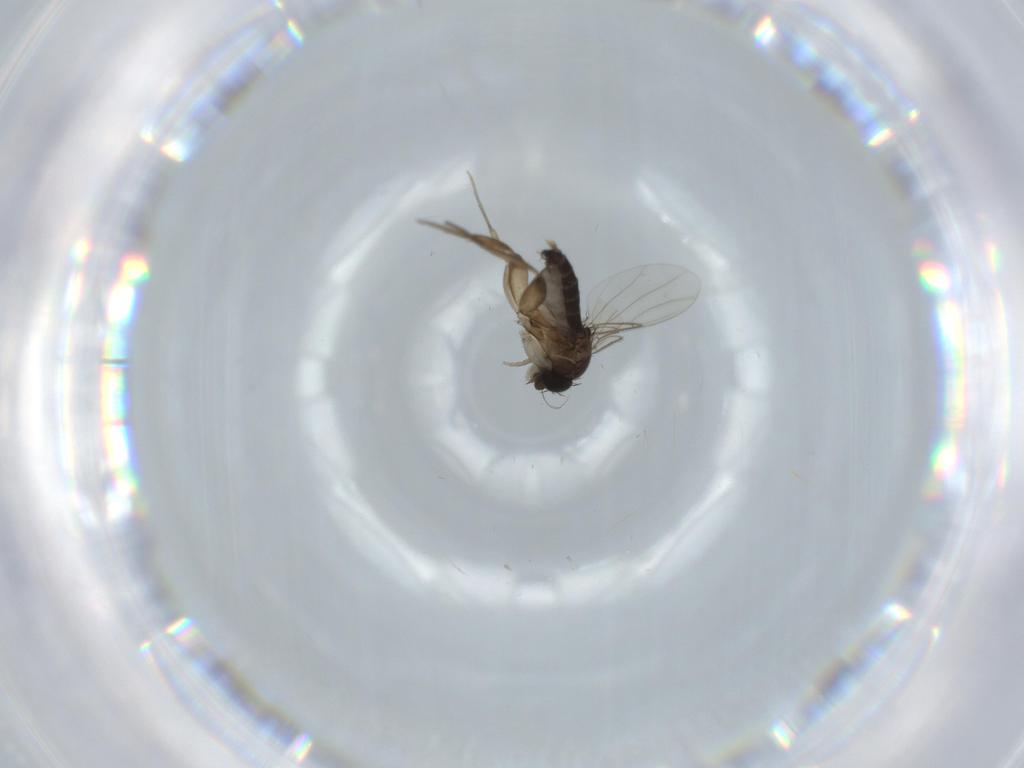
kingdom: Animalia
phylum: Arthropoda
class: Insecta
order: Diptera
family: Phoridae
